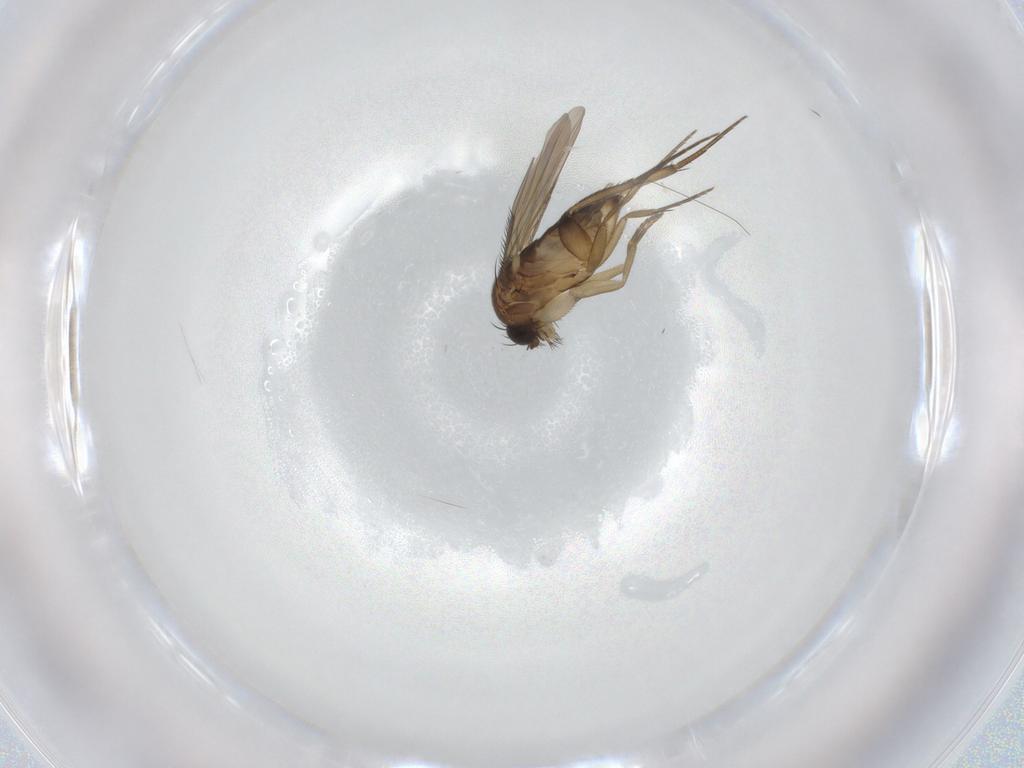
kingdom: Animalia
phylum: Arthropoda
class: Insecta
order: Diptera
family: Phoridae
